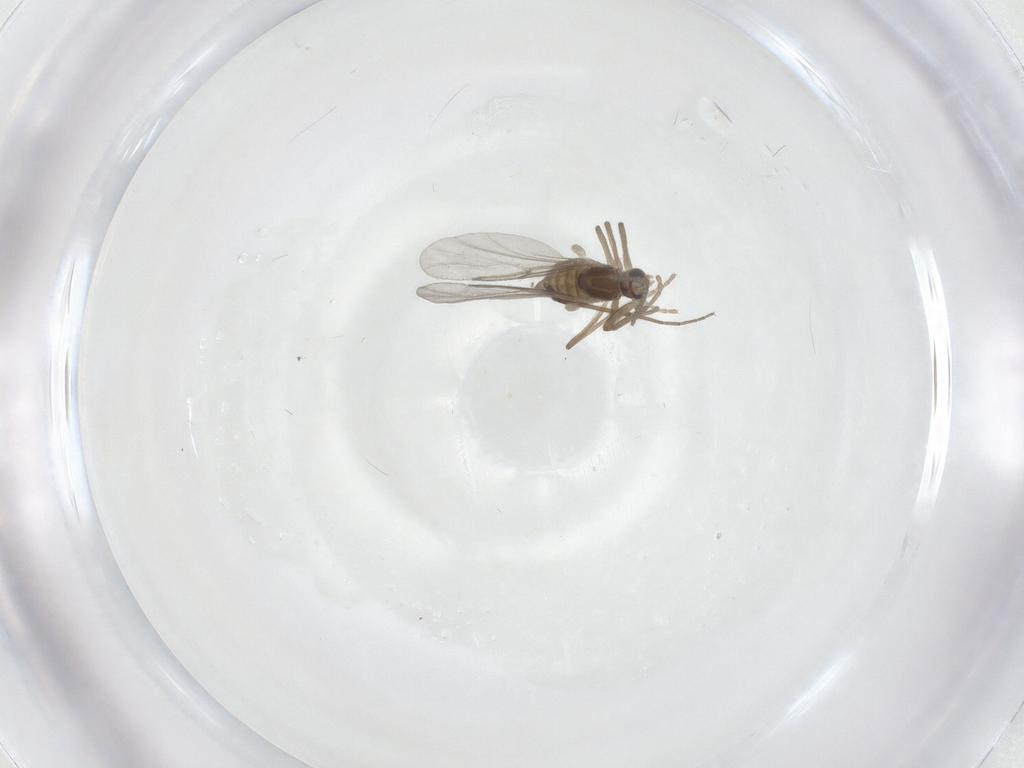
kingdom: Animalia
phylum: Arthropoda
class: Insecta
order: Diptera
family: Cecidomyiidae
